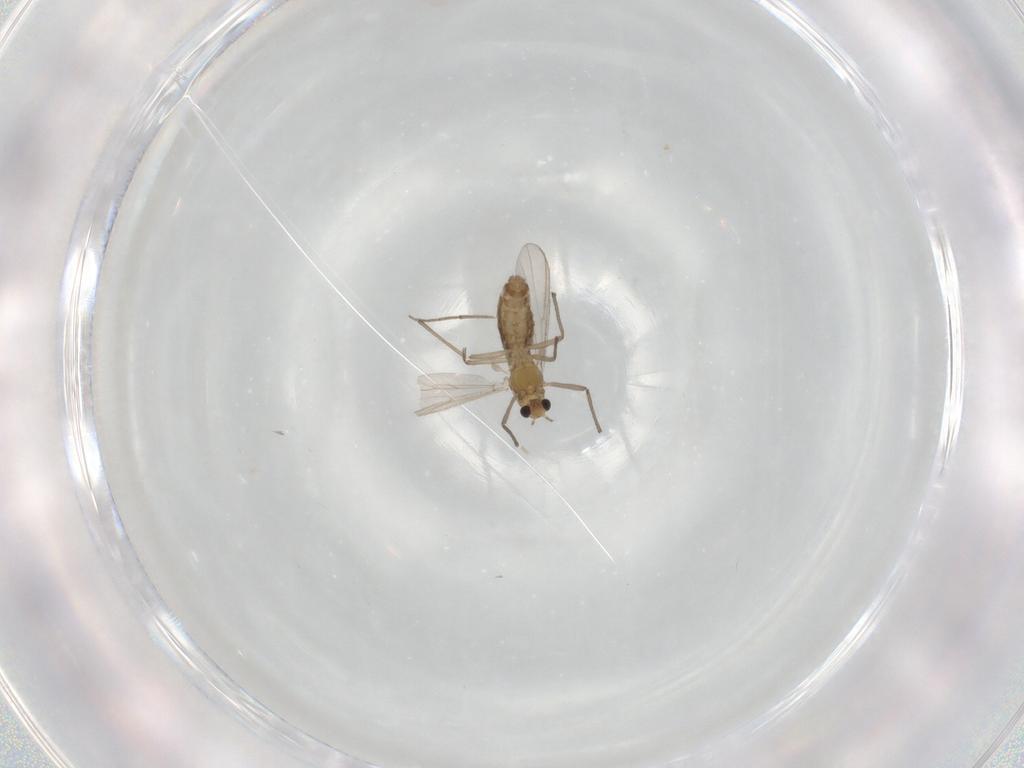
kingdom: Animalia
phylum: Arthropoda
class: Insecta
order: Diptera
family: Chironomidae
